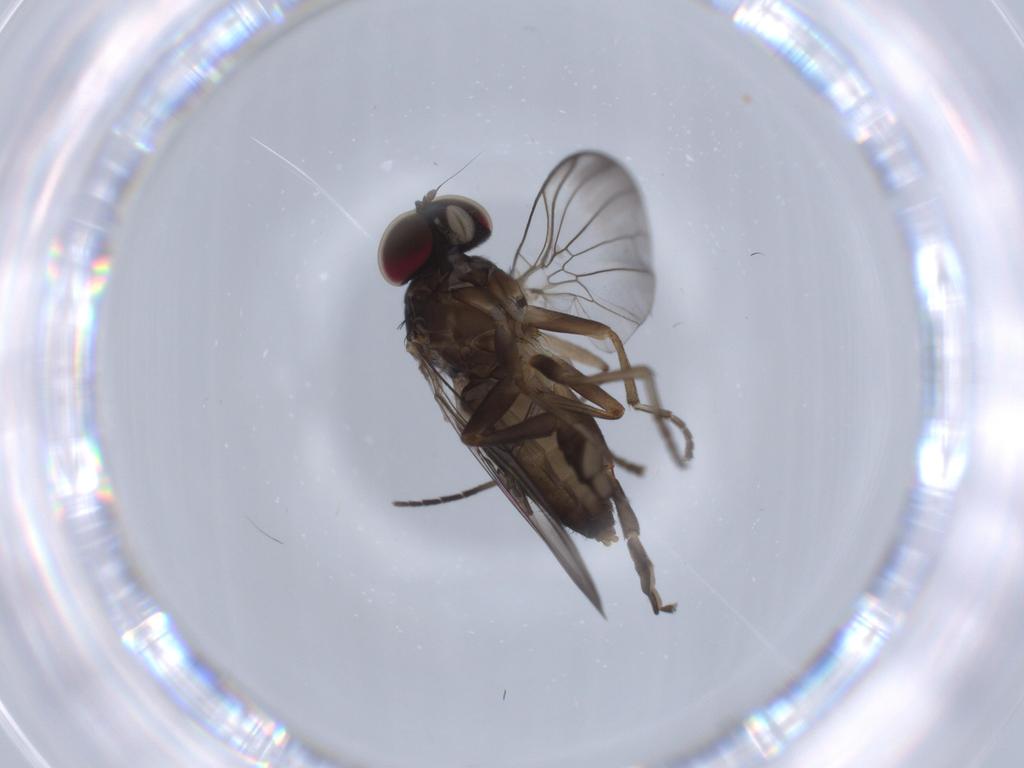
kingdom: Animalia
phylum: Arthropoda
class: Insecta
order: Diptera
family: Platypezidae
